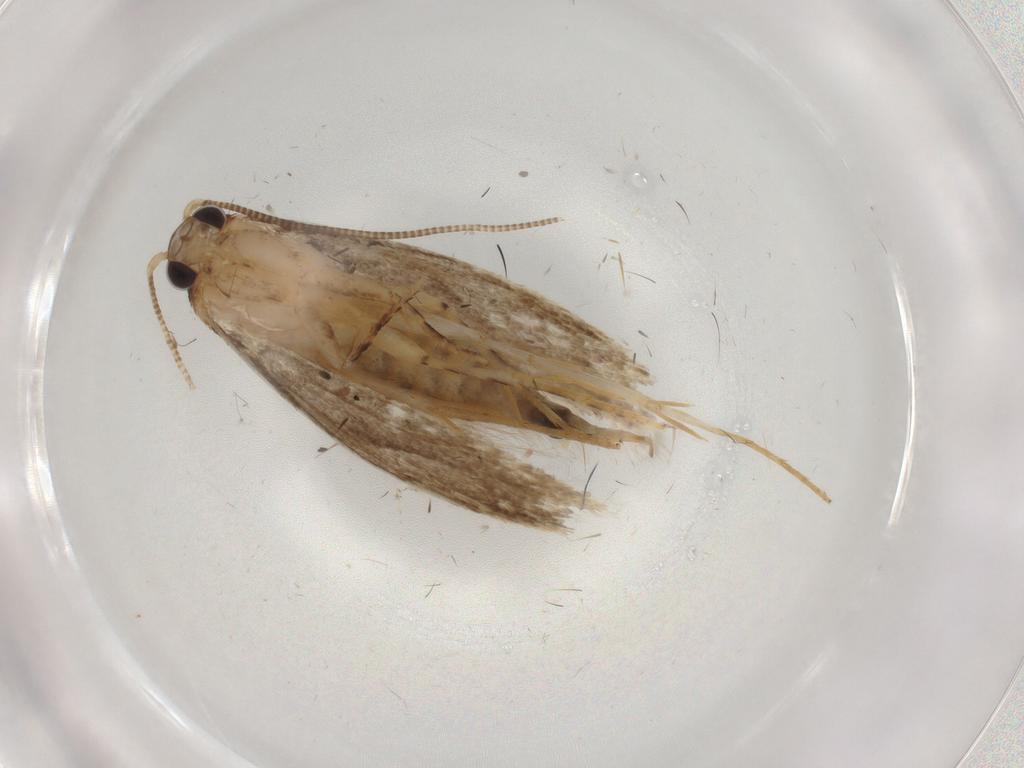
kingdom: Animalia
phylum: Arthropoda
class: Insecta
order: Lepidoptera
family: Tineidae
